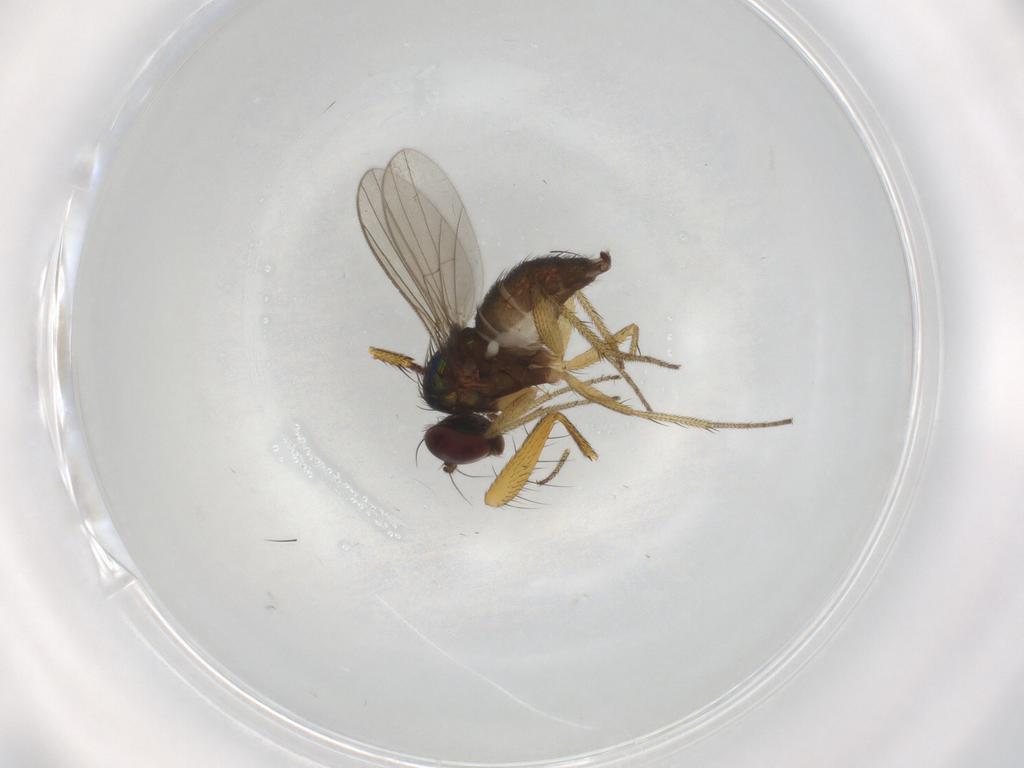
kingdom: Animalia
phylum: Arthropoda
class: Insecta
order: Diptera
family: Dolichopodidae
